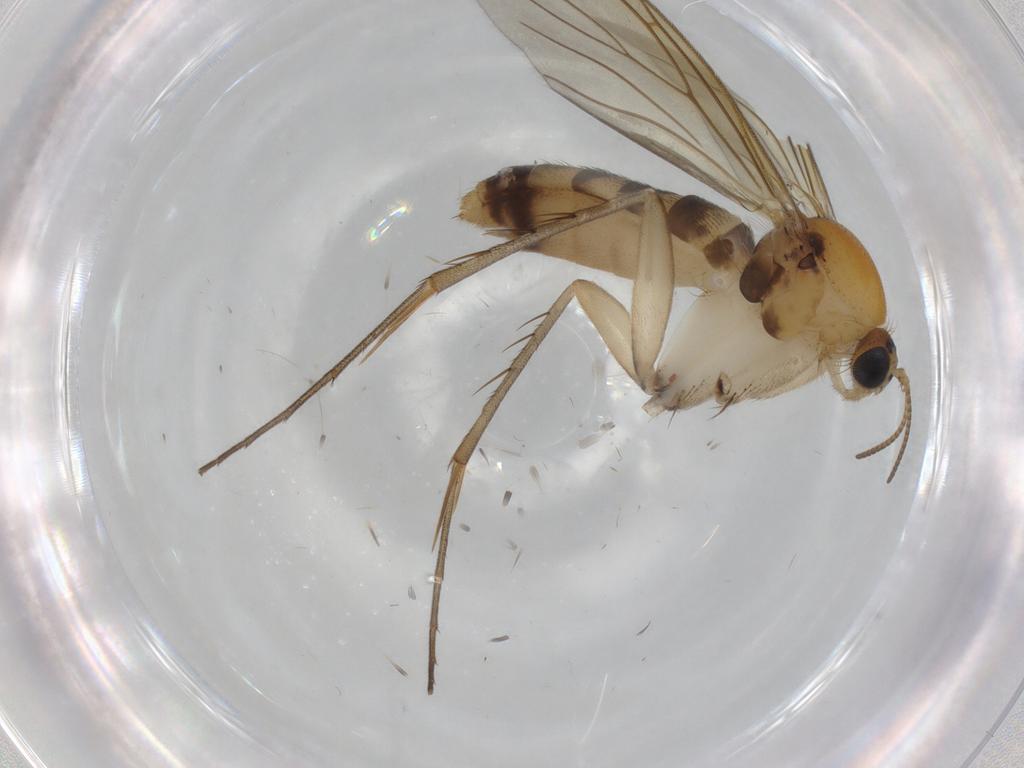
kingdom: Animalia
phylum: Arthropoda
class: Insecta
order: Diptera
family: Mycetophilidae
